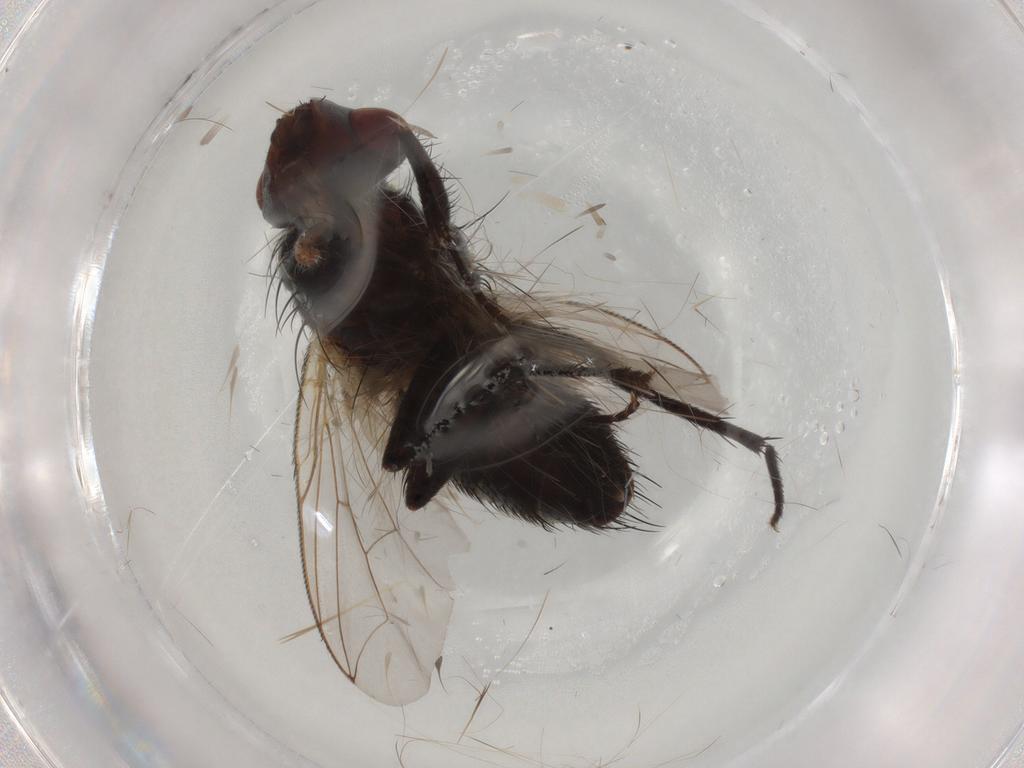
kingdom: Animalia
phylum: Arthropoda
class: Insecta
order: Diptera
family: Sarcophagidae
